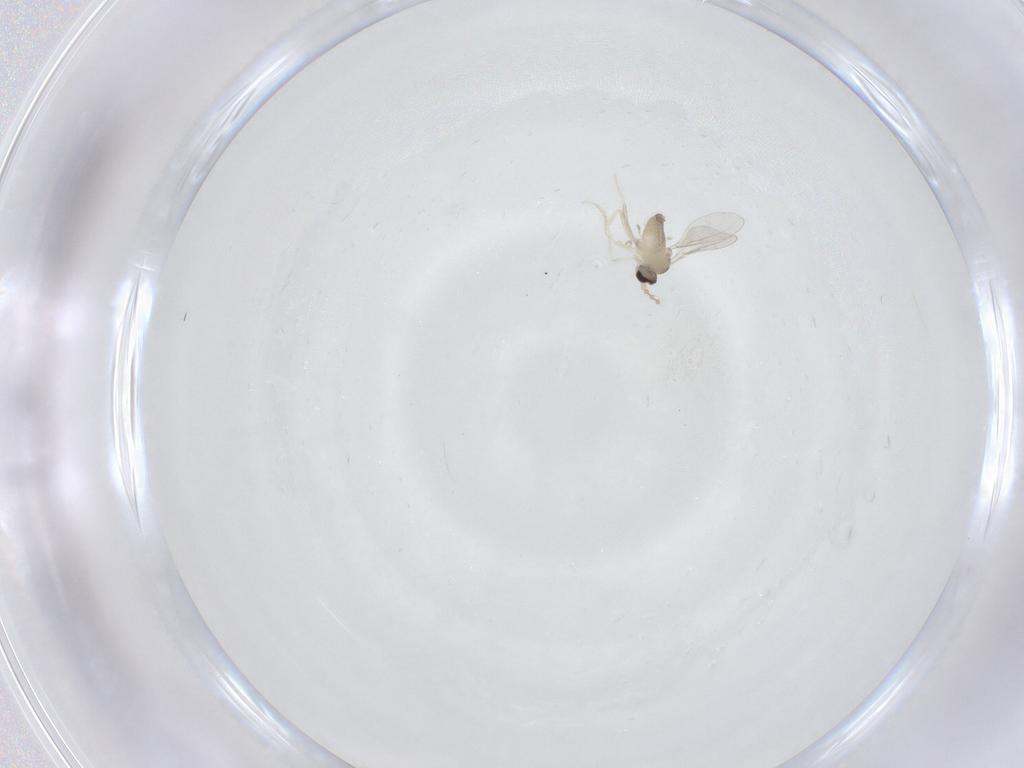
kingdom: Animalia
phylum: Arthropoda
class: Insecta
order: Diptera
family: Cecidomyiidae
